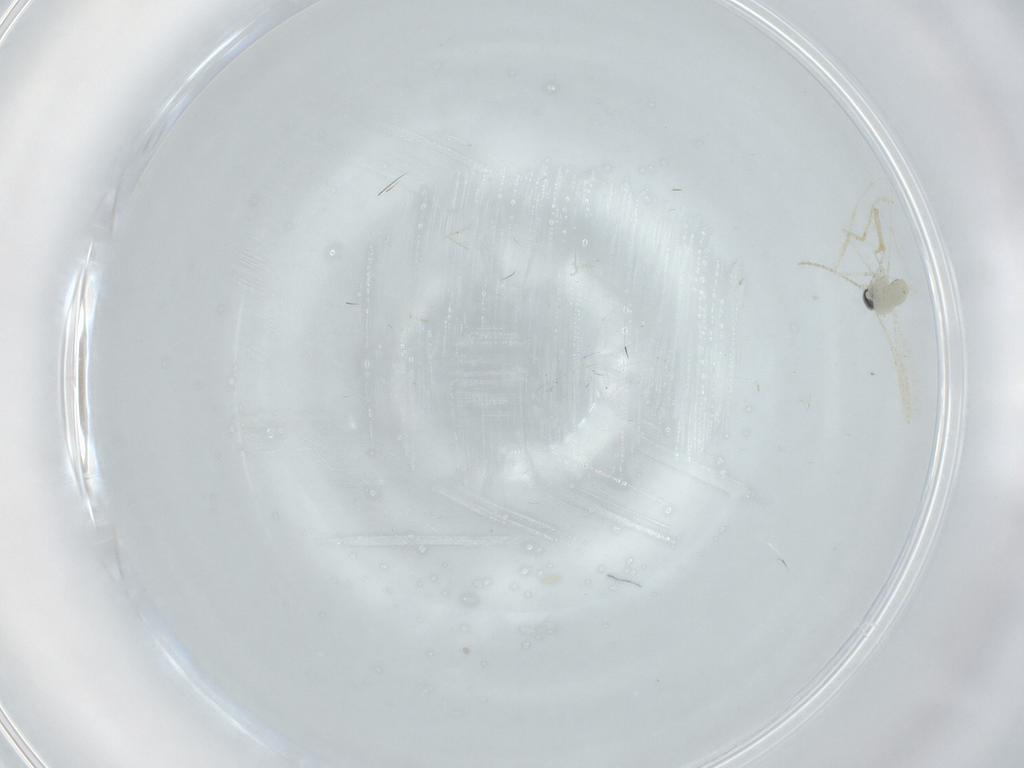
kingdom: Animalia
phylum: Arthropoda
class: Insecta
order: Diptera
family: Cecidomyiidae
